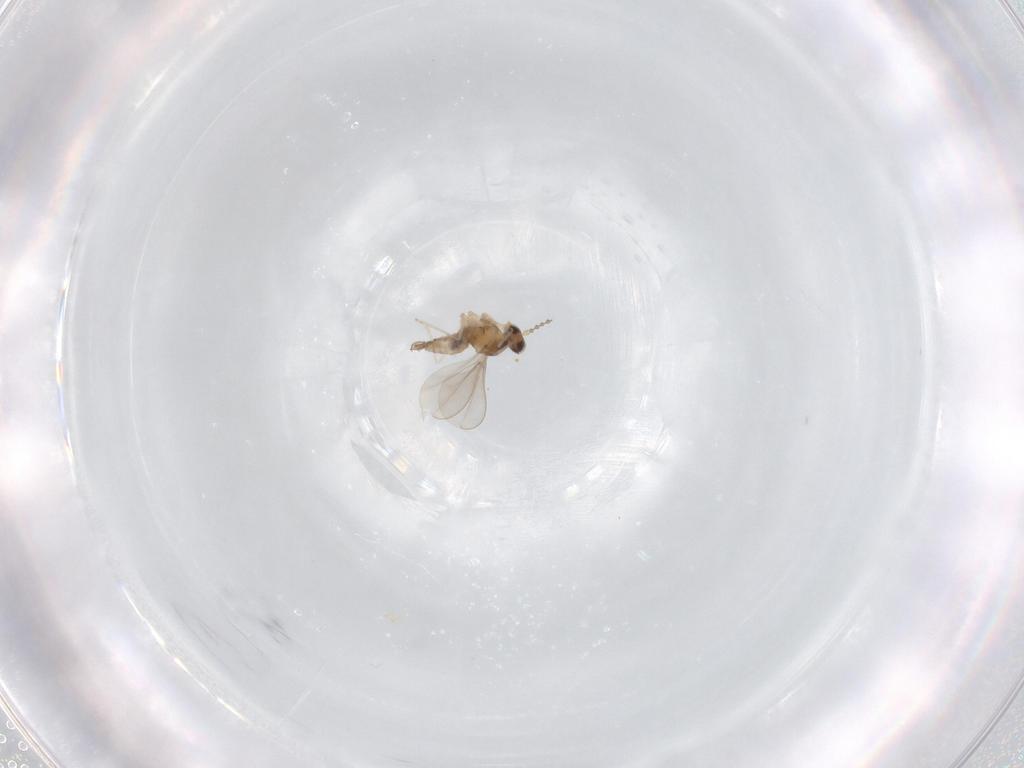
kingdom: Animalia
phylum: Arthropoda
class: Insecta
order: Diptera
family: Cecidomyiidae
